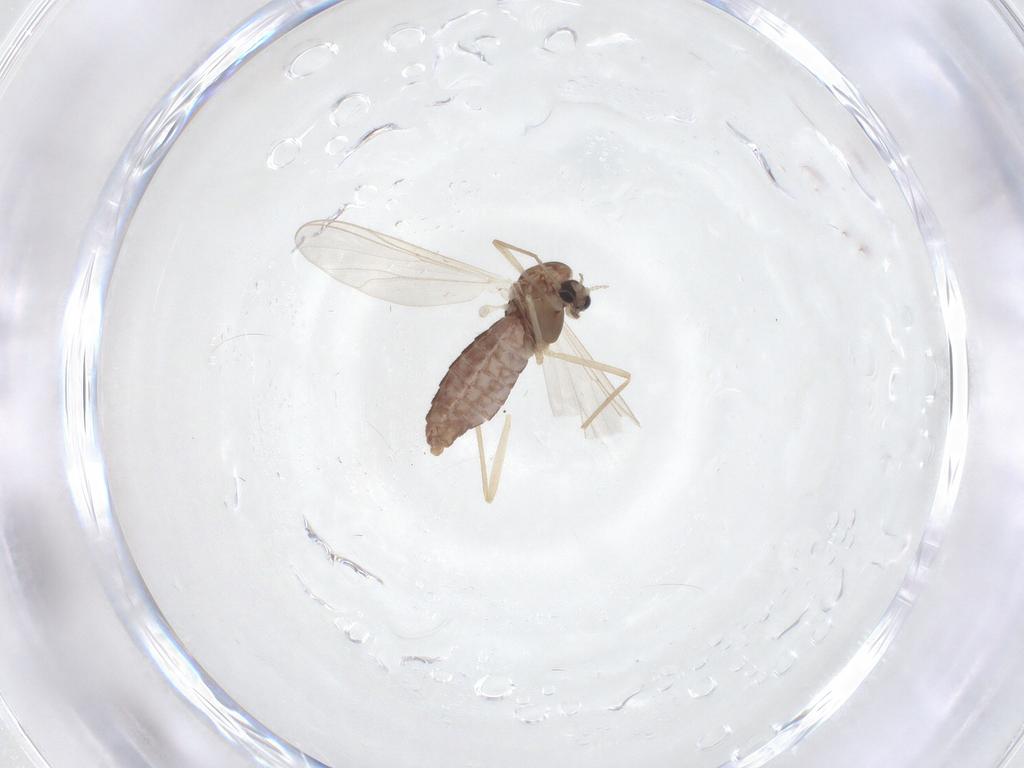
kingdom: Animalia
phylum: Arthropoda
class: Insecta
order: Diptera
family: Chironomidae
